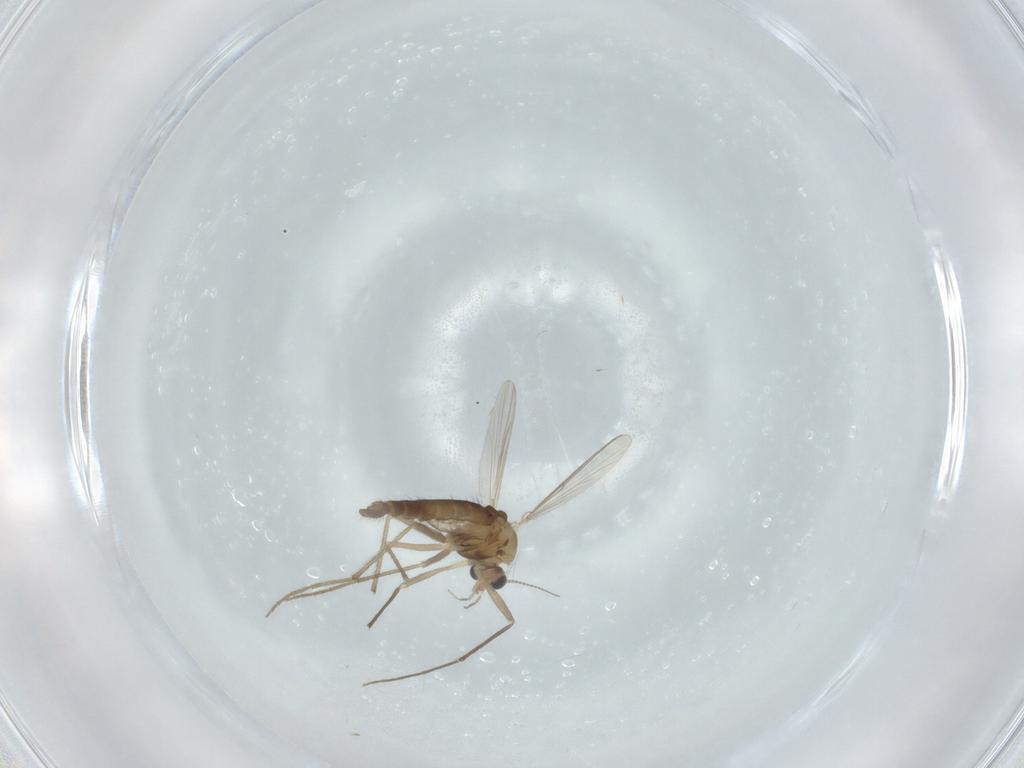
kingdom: Animalia
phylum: Arthropoda
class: Insecta
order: Diptera
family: Chironomidae
